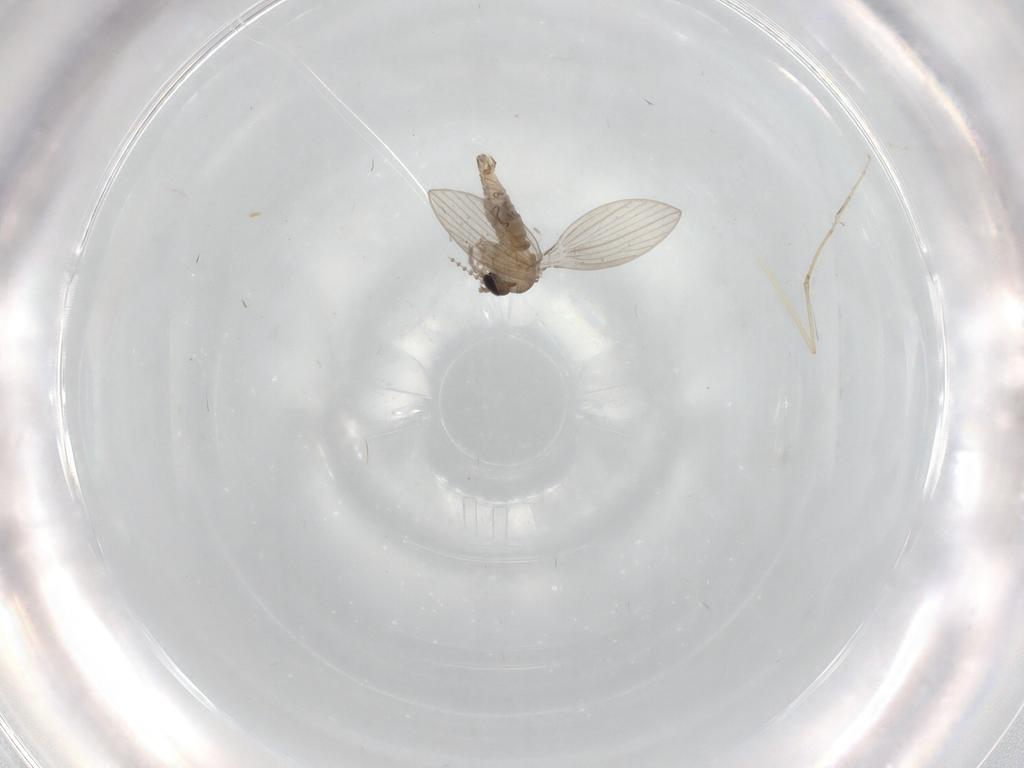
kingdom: Animalia
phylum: Arthropoda
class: Insecta
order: Diptera
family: Psychodidae
